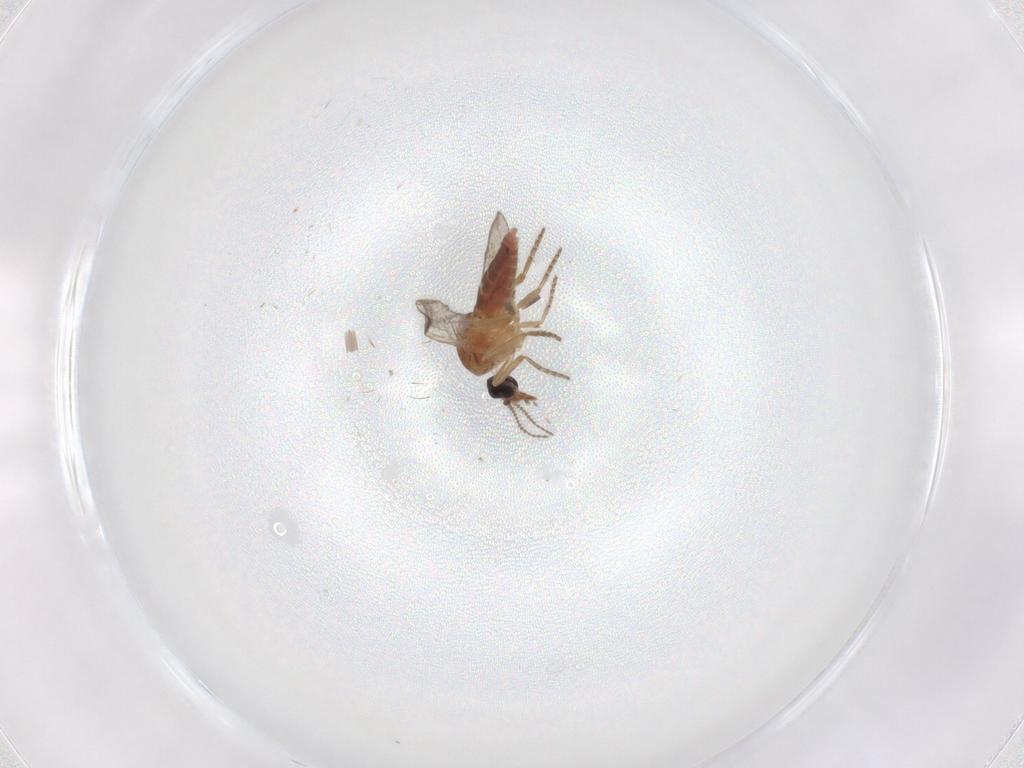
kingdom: Animalia
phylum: Arthropoda
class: Insecta
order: Diptera
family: Ceratopogonidae
